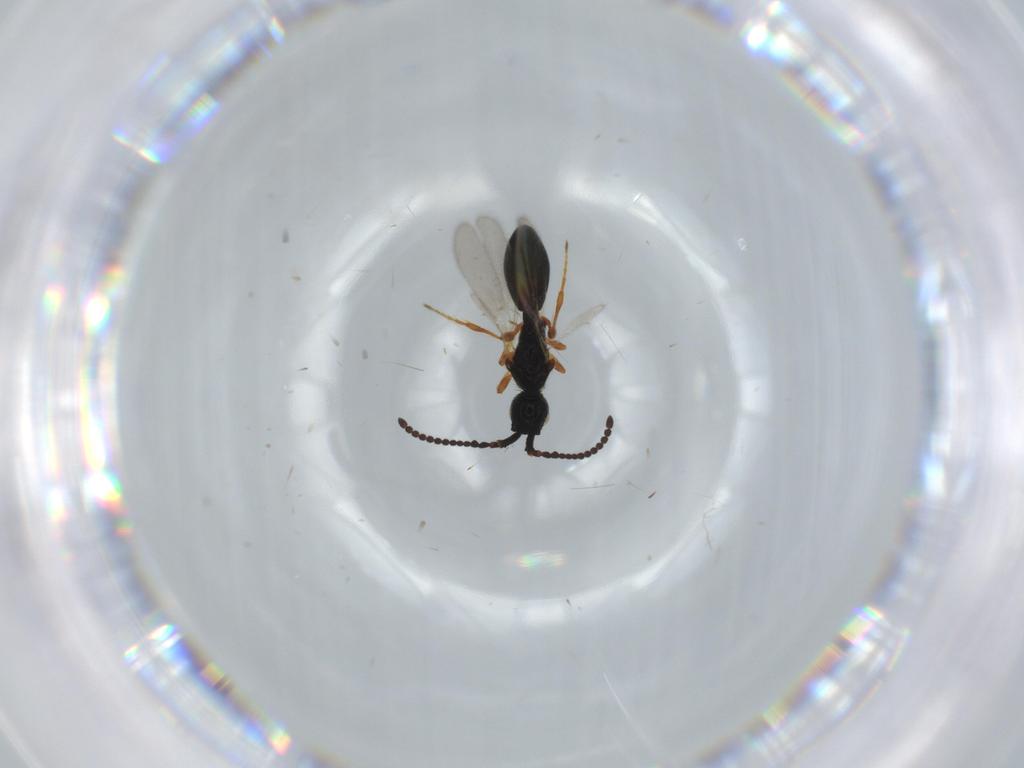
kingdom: Animalia
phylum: Arthropoda
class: Insecta
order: Hymenoptera
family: Diapriidae
